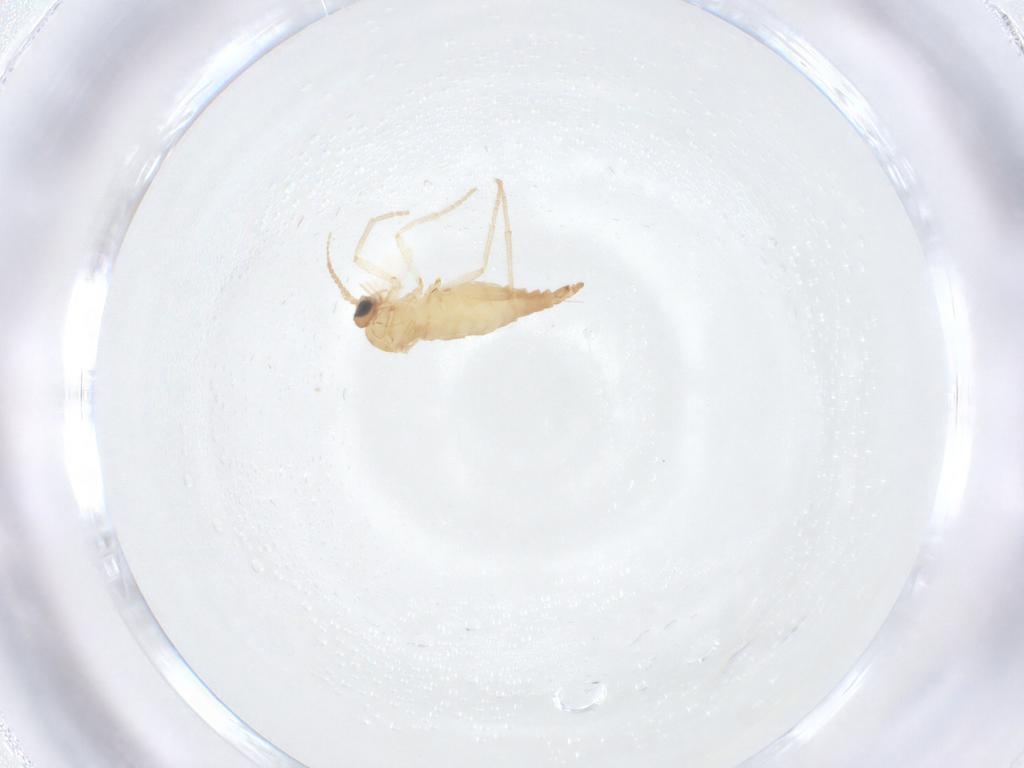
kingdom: Animalia
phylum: Arthropoda
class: Insecta
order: Diptera
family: Sciaridae
